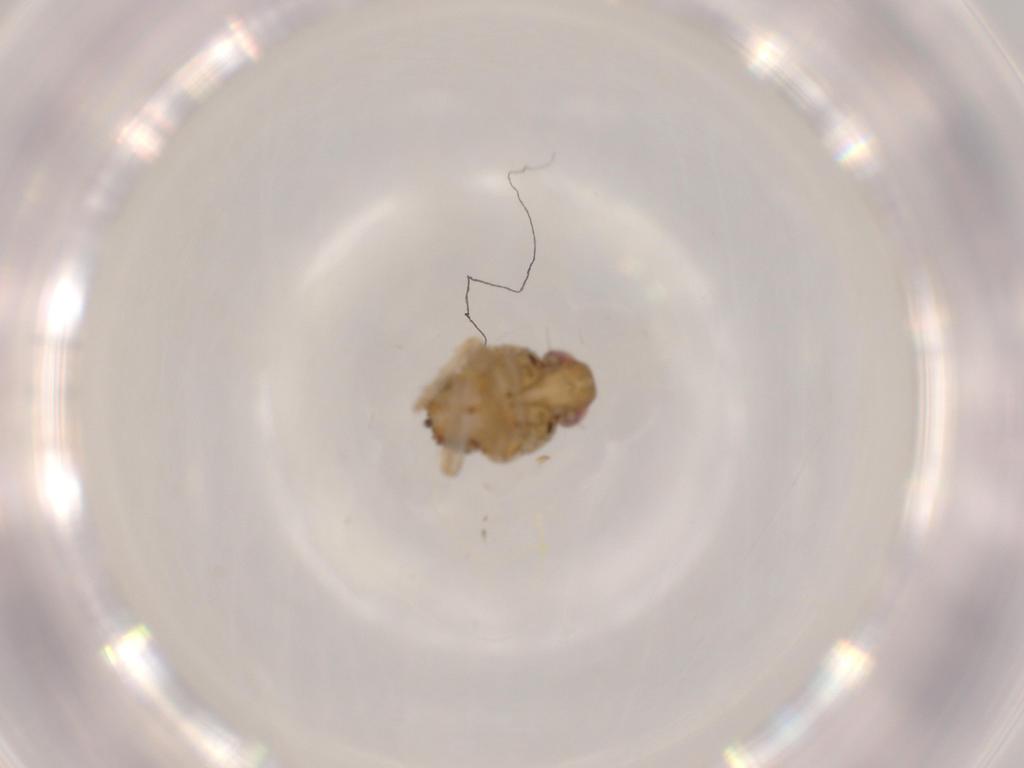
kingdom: Animalia
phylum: Arthropoda
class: Insecta
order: Hemiptera
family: Issidae
